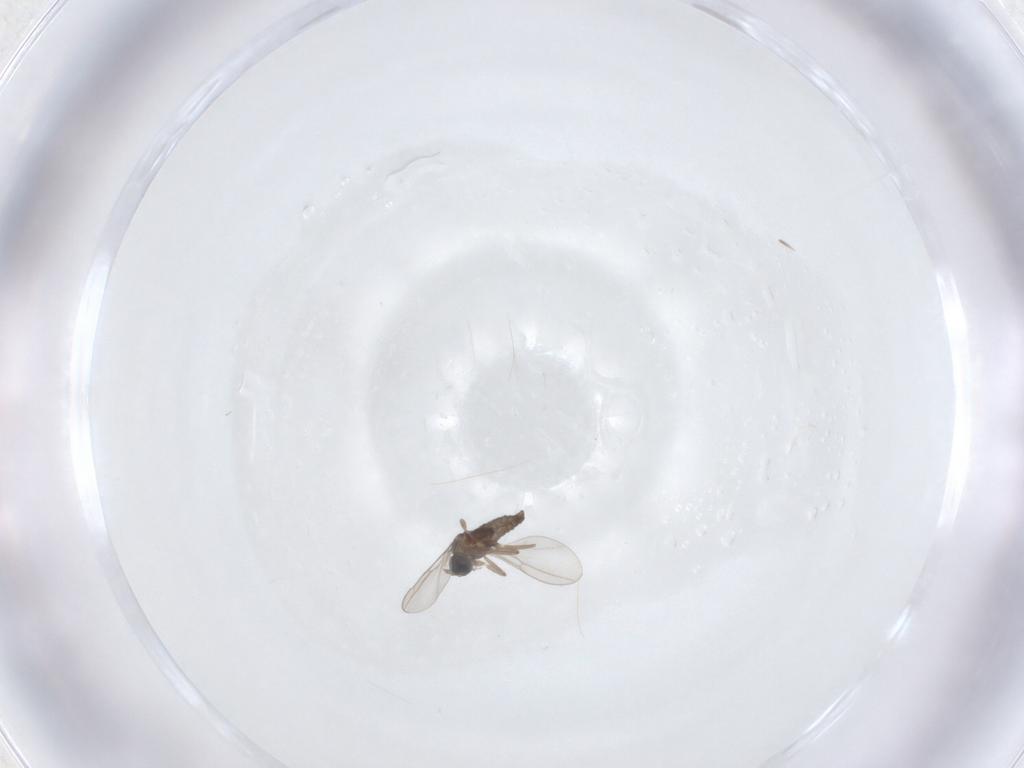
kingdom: Animalia
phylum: Arthropoda
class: Insecta
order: Diptera
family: Cecidomyiidae
